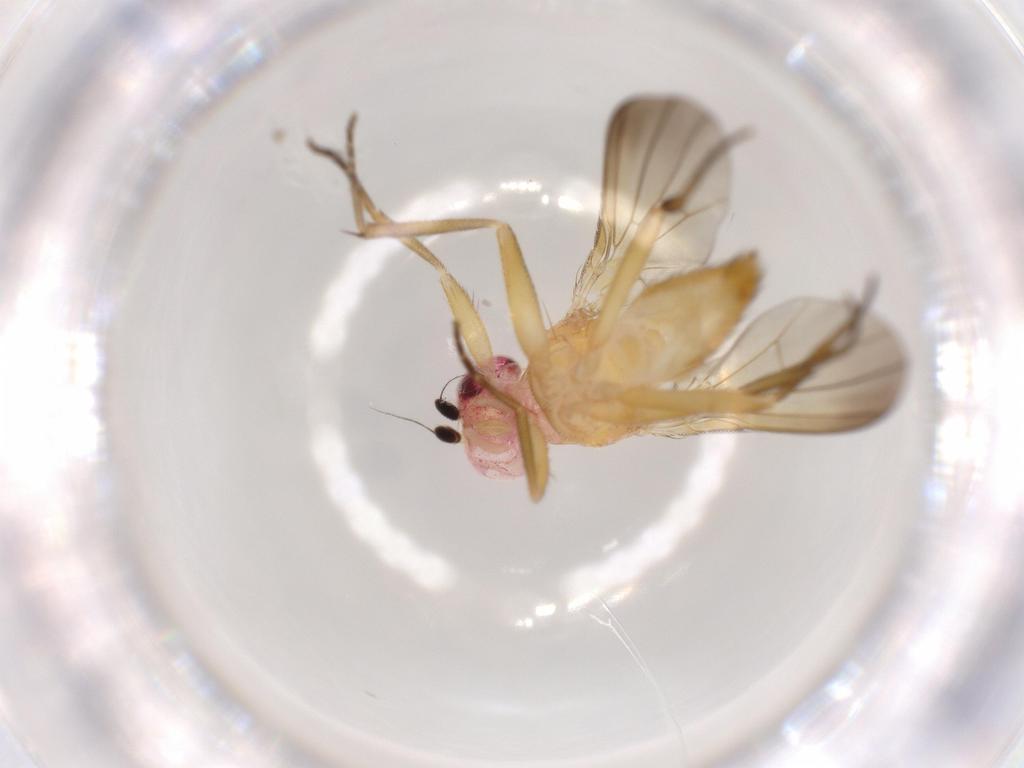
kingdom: Animalia
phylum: Arthropoda
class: Insecta
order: Diptera
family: Clusiidae
